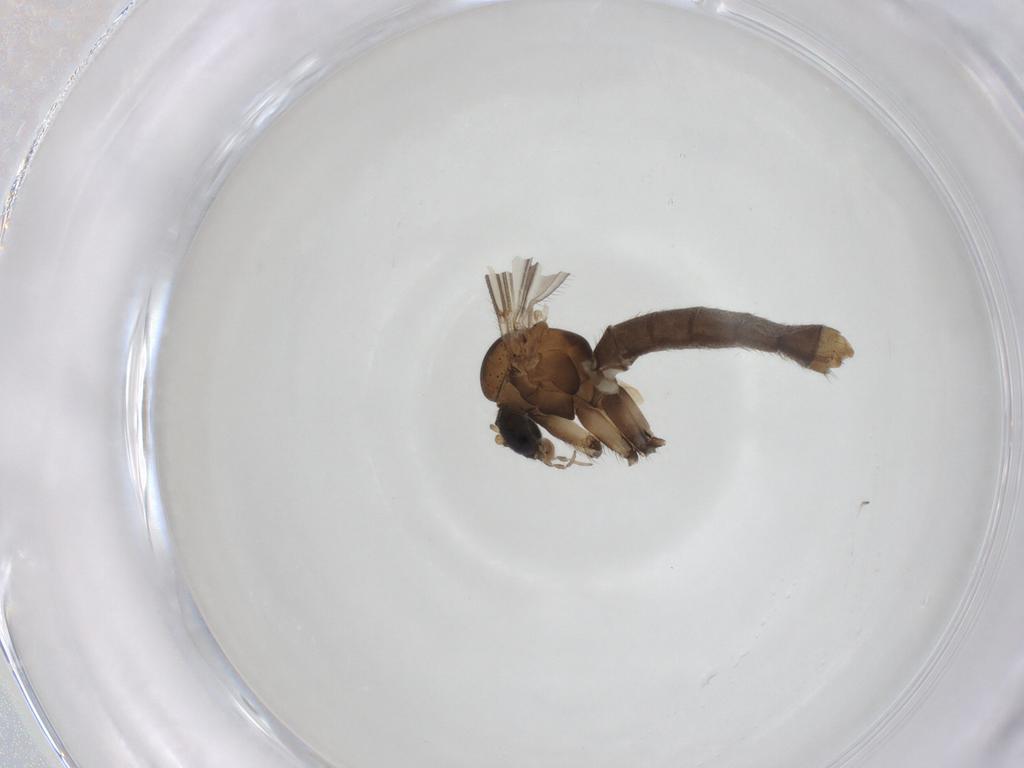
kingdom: Animalia
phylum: Arthropoda
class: Insecta
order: Diptera
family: Mycetophilidae
